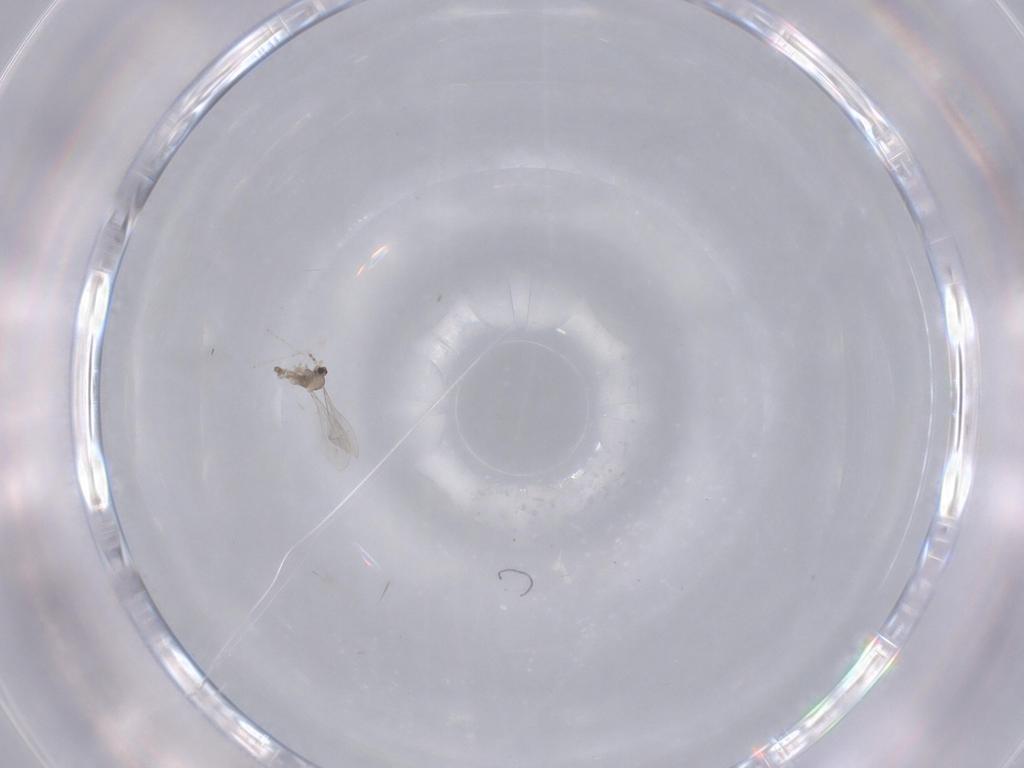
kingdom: Animalia
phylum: Arthropoda
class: Insecta
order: Diptera
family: Cecidomyiidae
